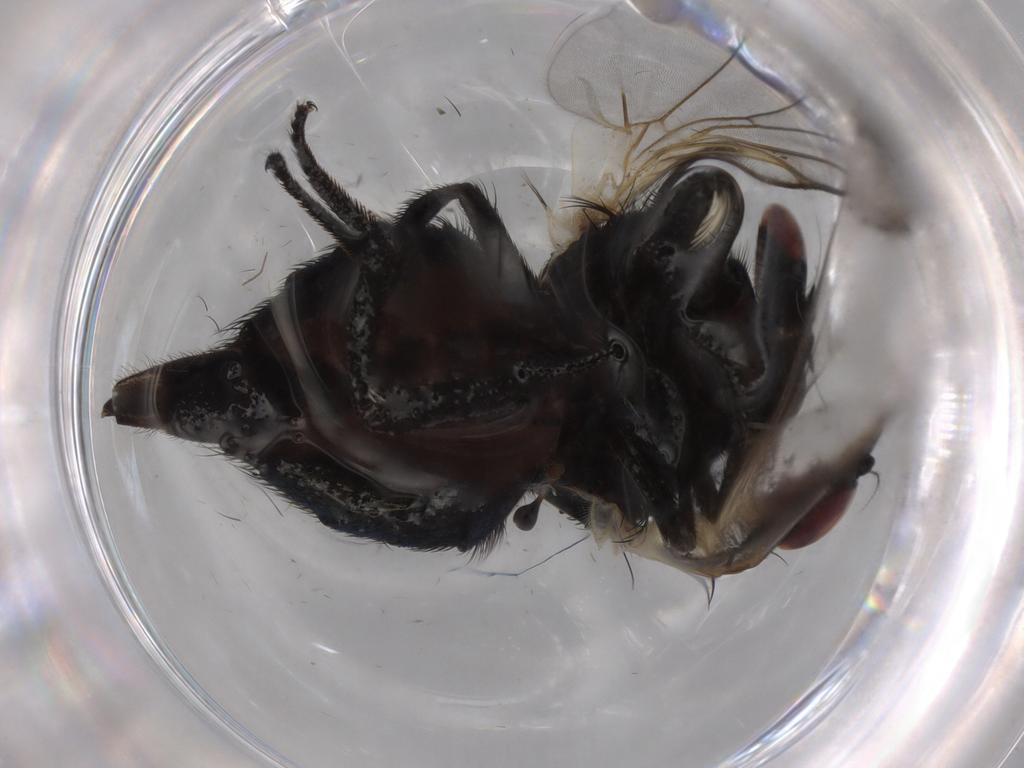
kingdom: Animalia
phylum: Arthropoda
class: Insecta
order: Diptera
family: Lonchaeidae
